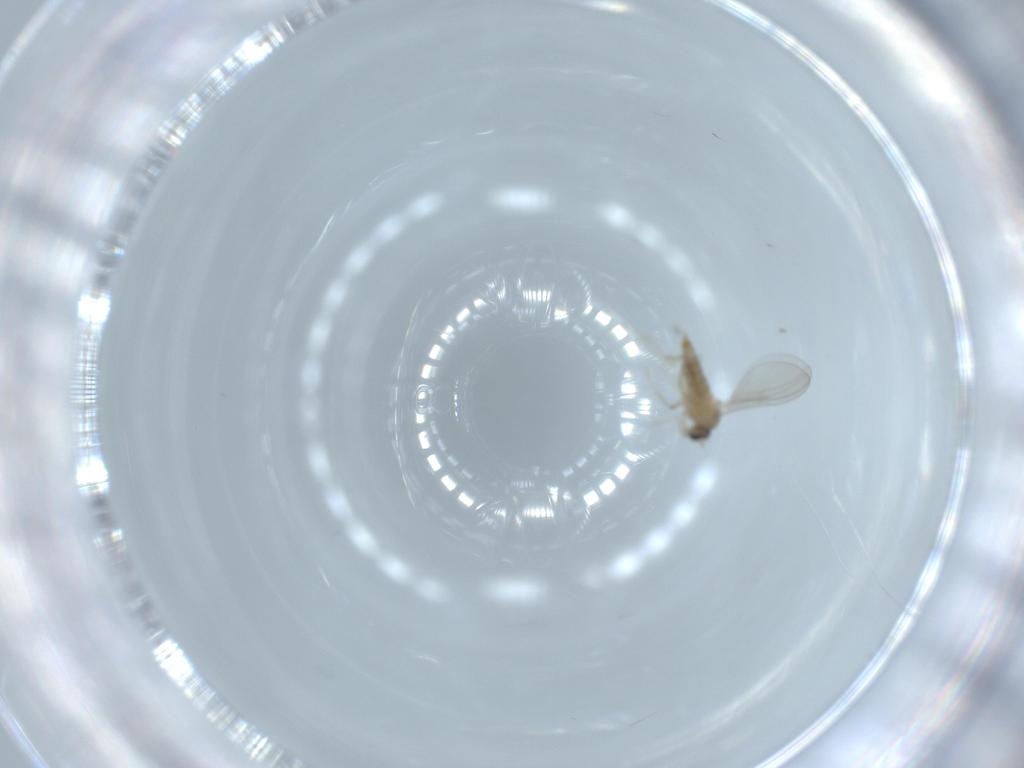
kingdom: Animalia
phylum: Arthropoda
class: Insecta
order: Diptera
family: Cecidomyiidae
